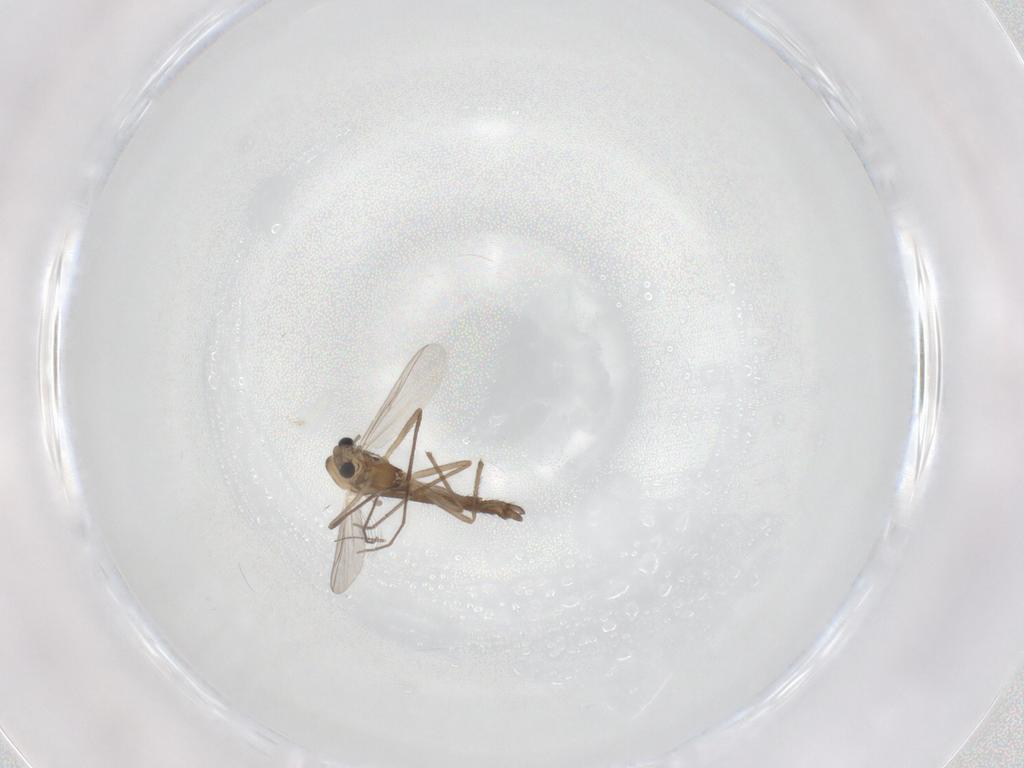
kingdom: Animalia
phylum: Arthropoda
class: Insecta
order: Diptera
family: Chironomidae
